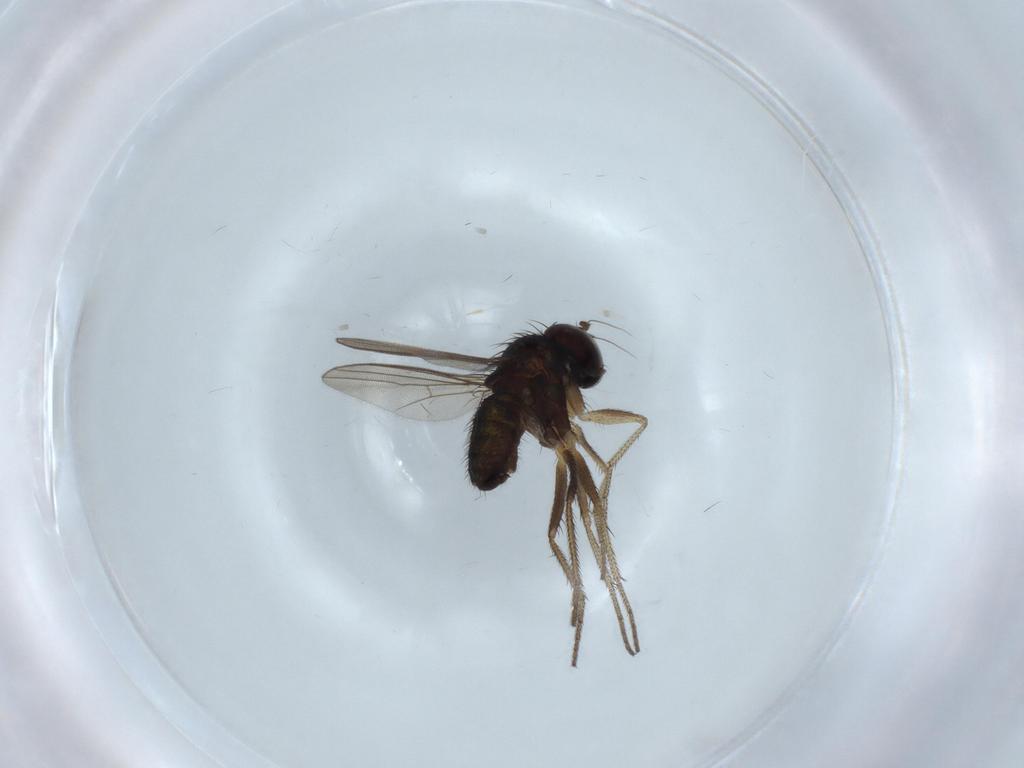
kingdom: Animalia
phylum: Arthropoda
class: Insecta
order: Diptera
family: Dolichopodidae
